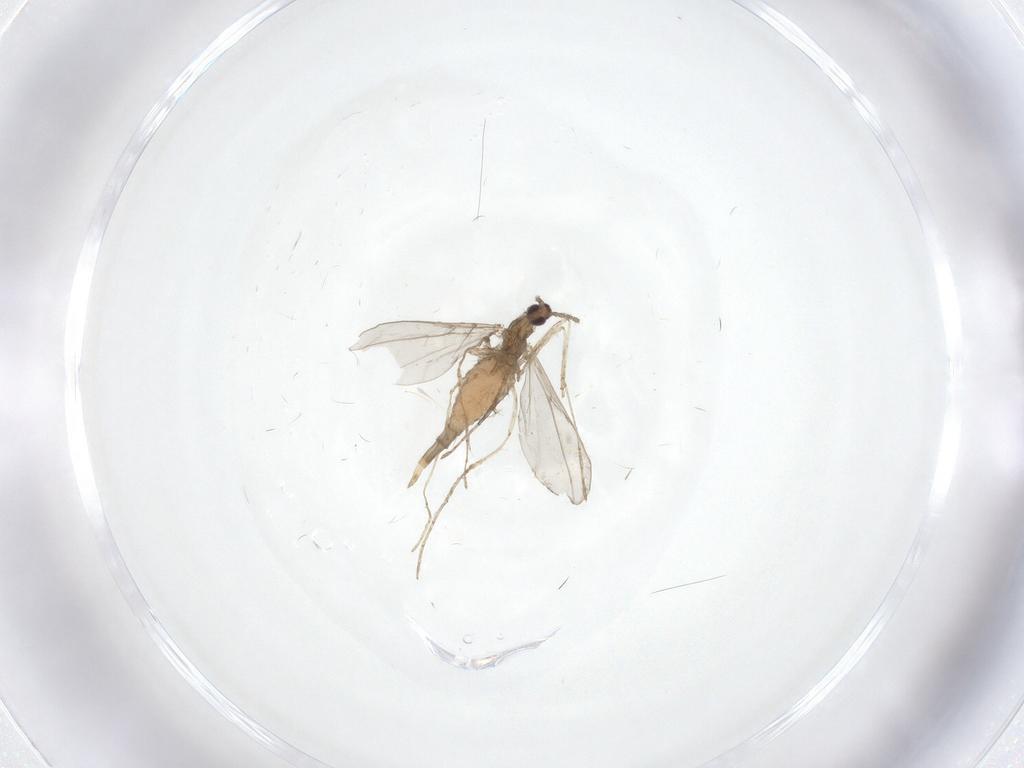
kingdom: Animalia
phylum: Arthropoda
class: Insecta
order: Diptera
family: Cecidomyiidae
